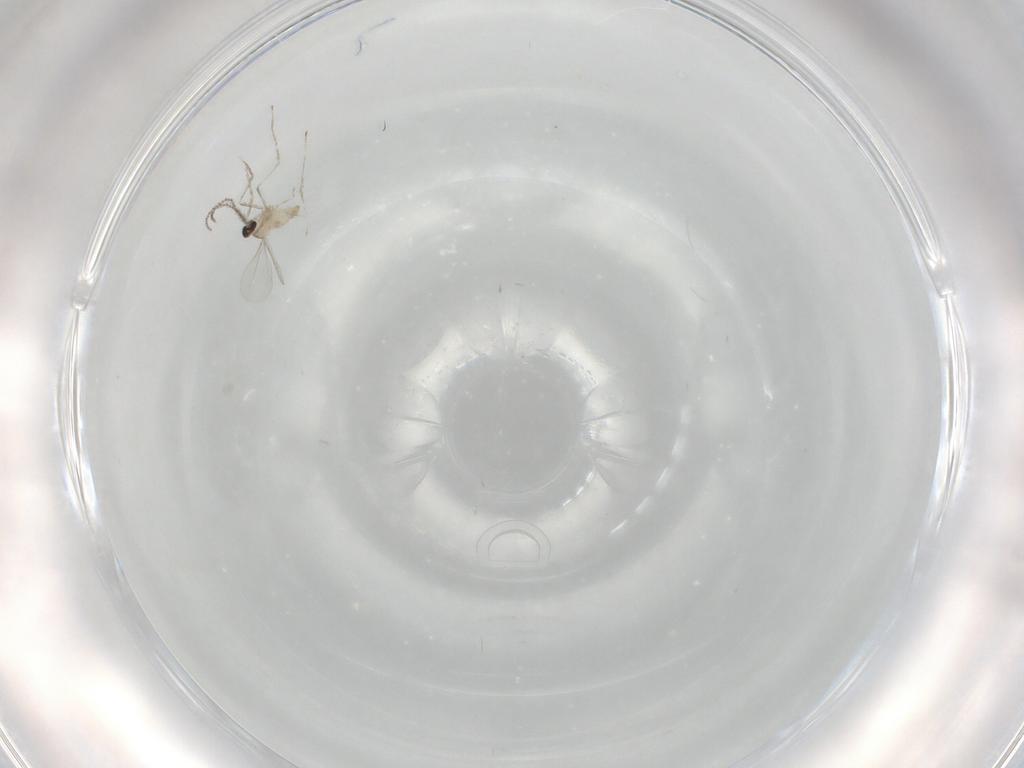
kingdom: Animalia
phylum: Arthropoda
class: Insecta
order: Diptera
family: Cecidomyiidae
